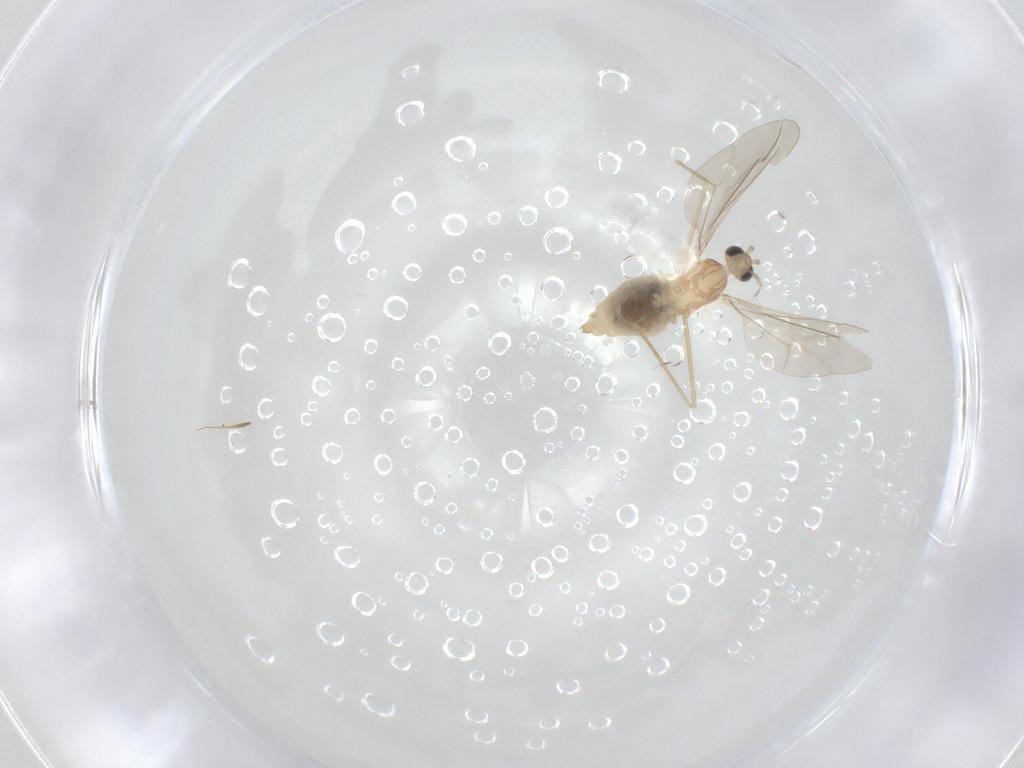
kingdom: Animalia
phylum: Arthropoda
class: Insecta
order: Diptera
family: Cecidomyiidae
